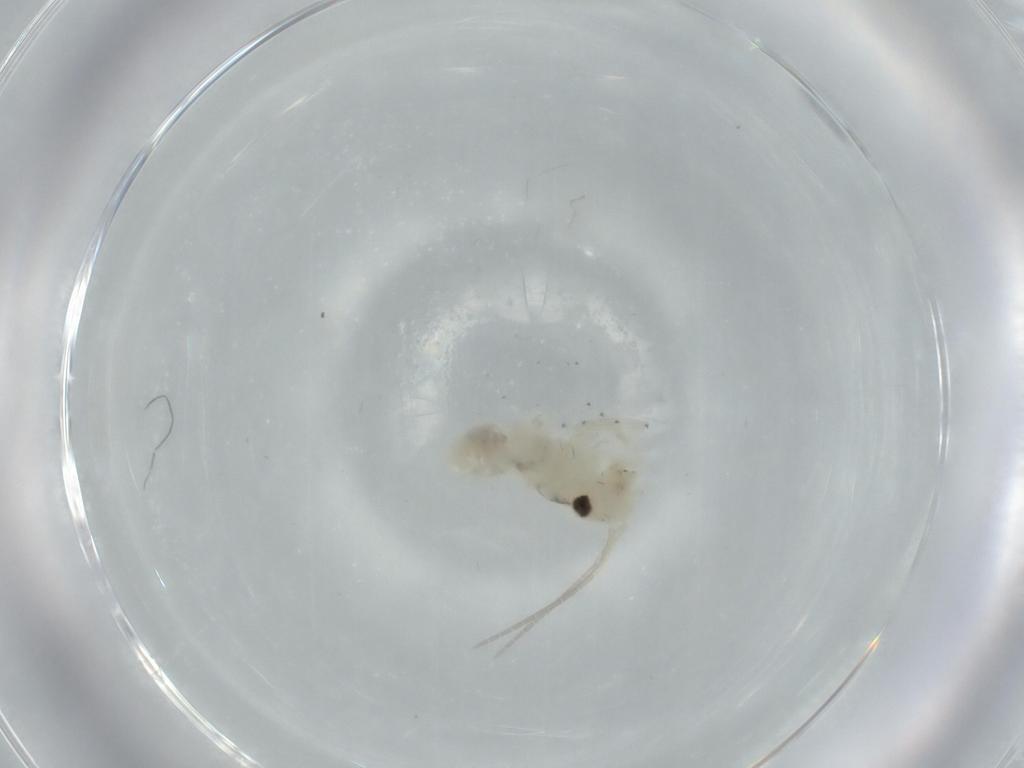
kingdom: Animalia
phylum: Arthropoda
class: Insecta
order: Psocodea
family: Caeciliusidae
